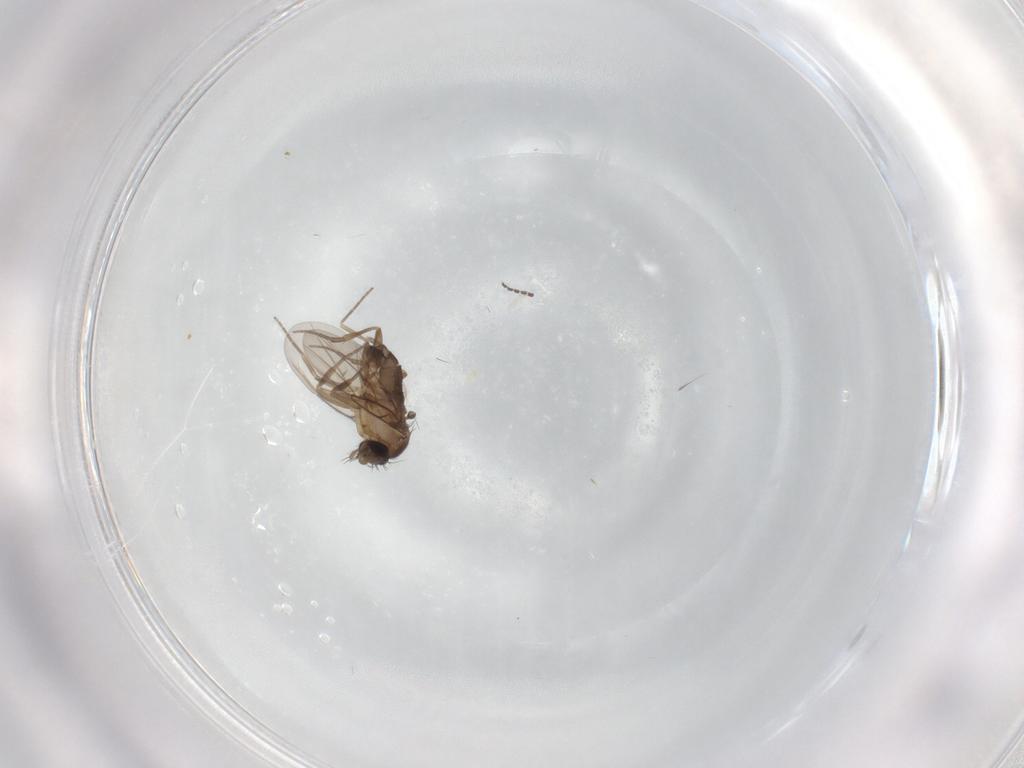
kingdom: Animalia
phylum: Arthropoda
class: Insecta
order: Diptera
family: Phoridae
